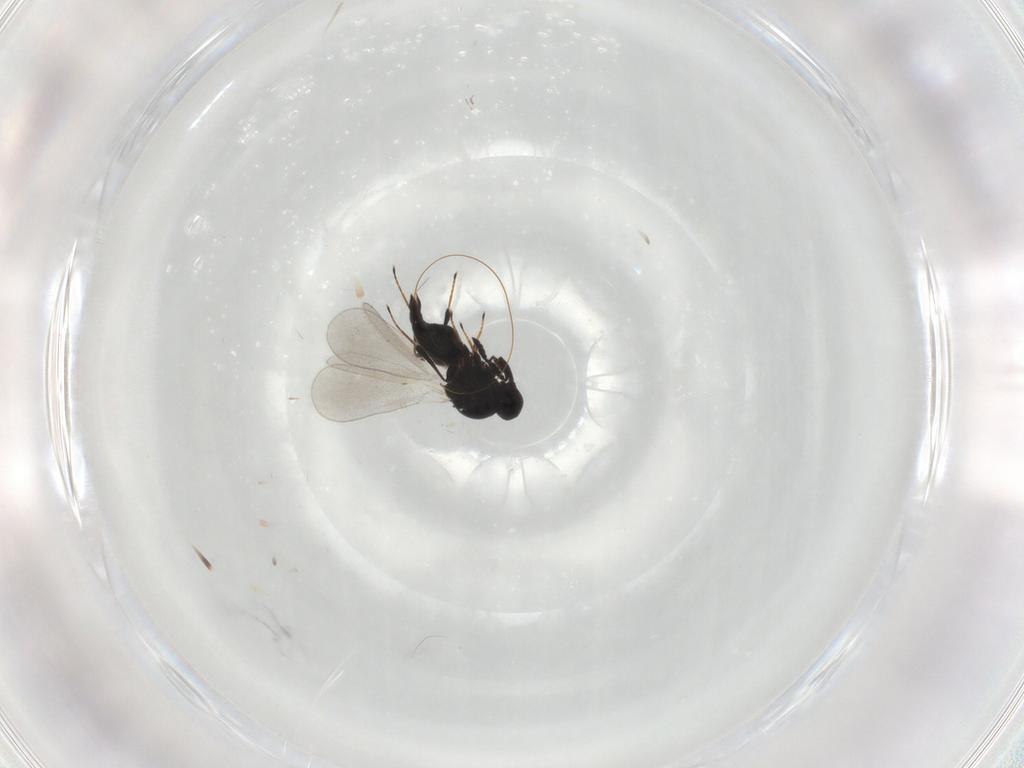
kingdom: Animalia
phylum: Arthropoda
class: Insecta
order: Hymenoptera
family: Platygastridae
